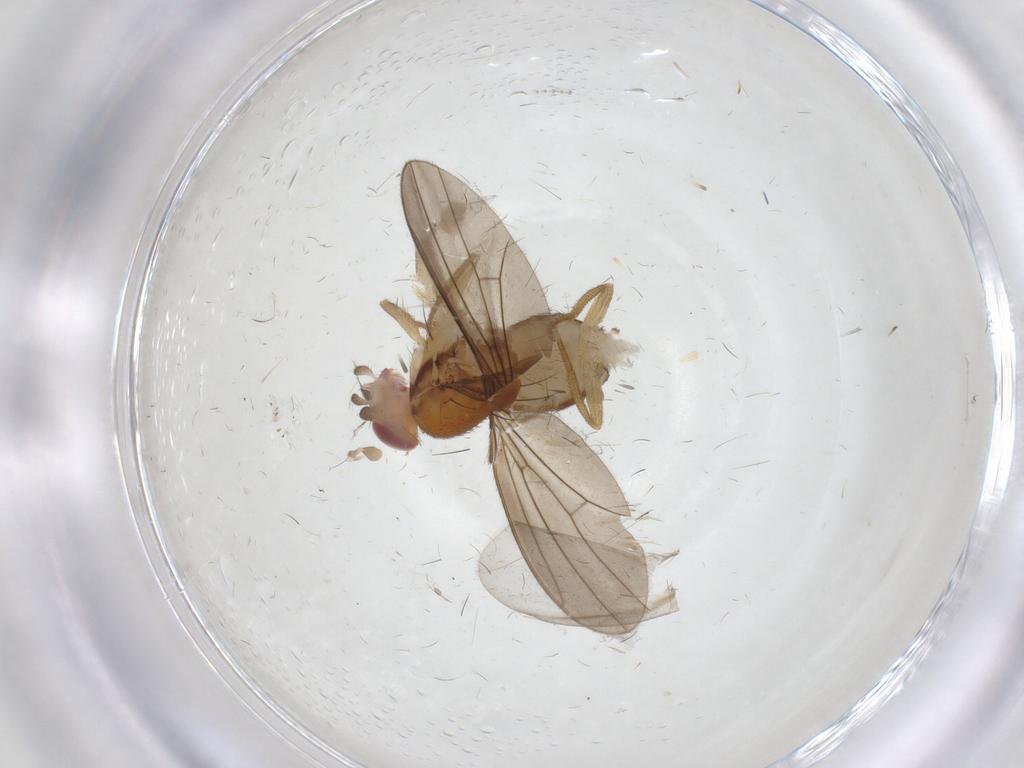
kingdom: Animalia
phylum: Arthropoda
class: Insecta
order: Diptera
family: Drosophilidae
